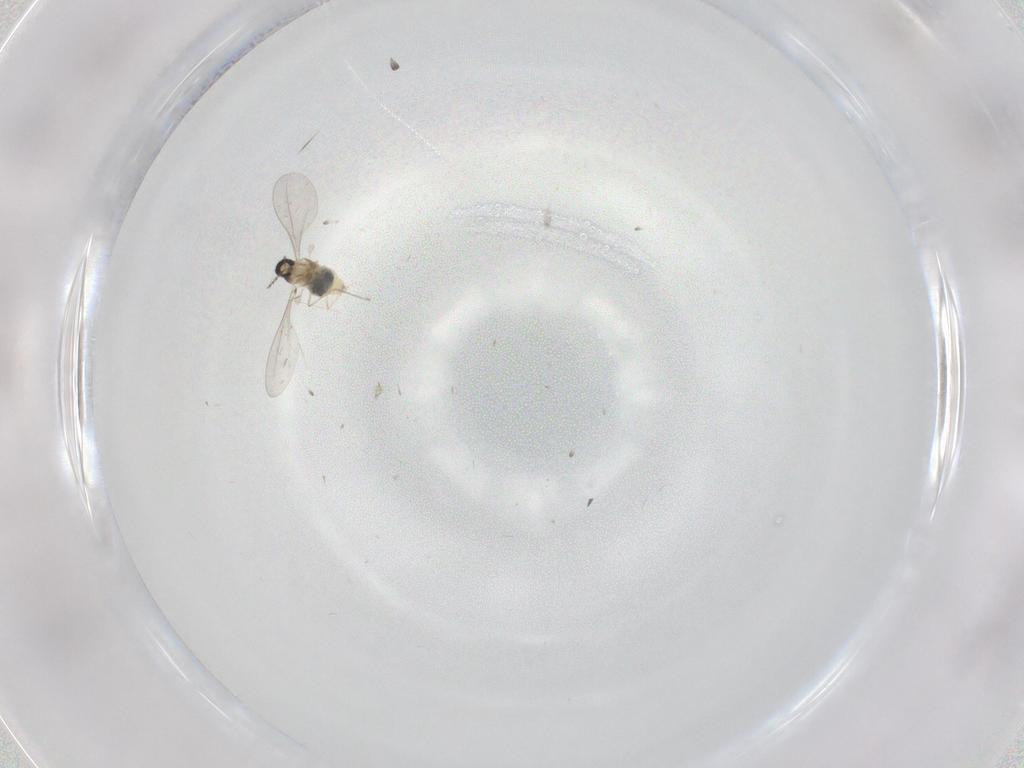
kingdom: Animalia
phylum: Arthropoda
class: Insecta
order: Diptera
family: Cecidomyiidae
